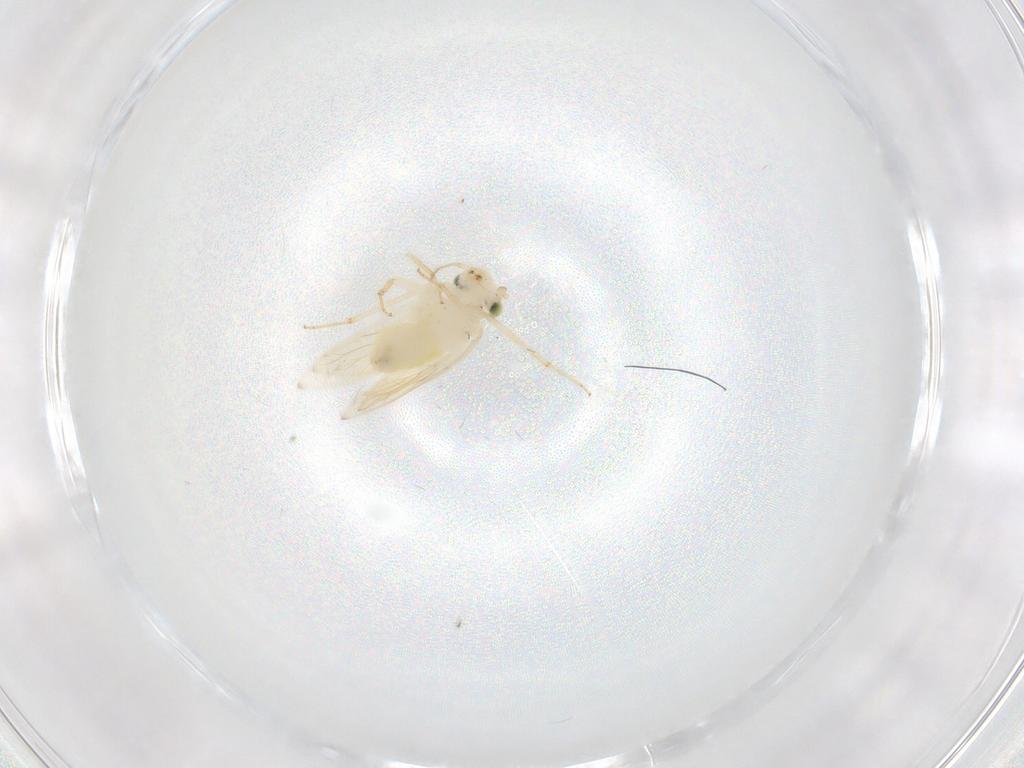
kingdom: Animalia
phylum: Arthropoda
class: Insecta
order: Psocodea
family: Lepidopsocidae
